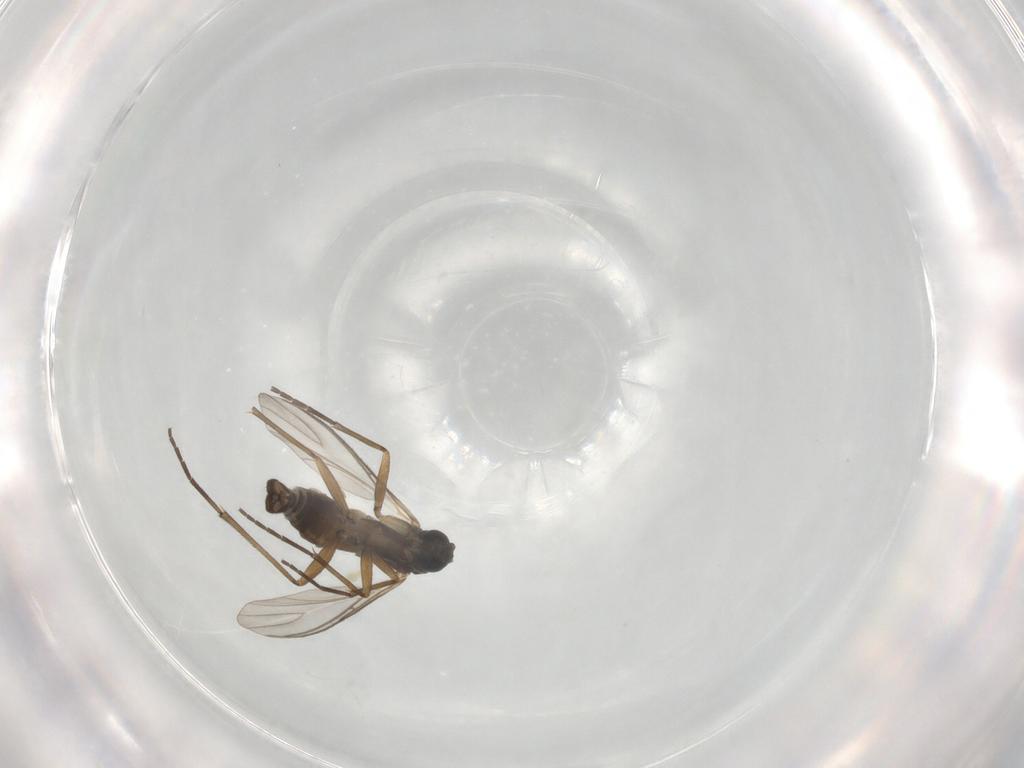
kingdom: Animalia
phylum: Arthropoda
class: Insecta
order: Diptera
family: Sciaridae
